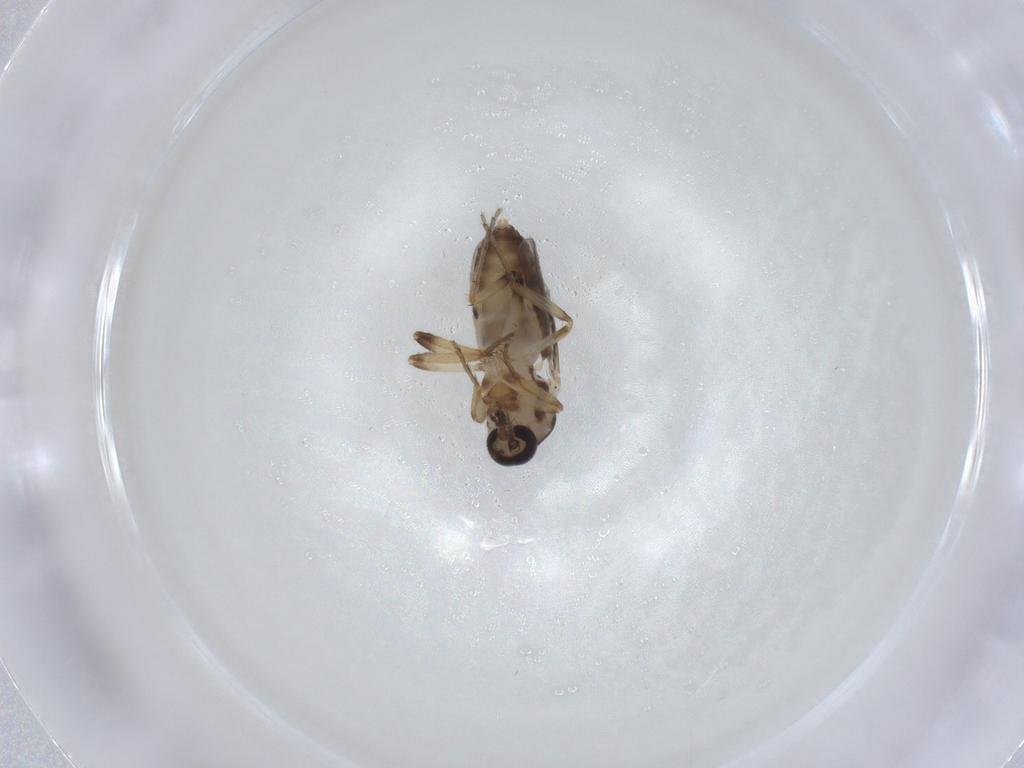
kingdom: Animalia
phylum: Arthropoda
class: Insecta
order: Diptera
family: Ceratopogonidae
